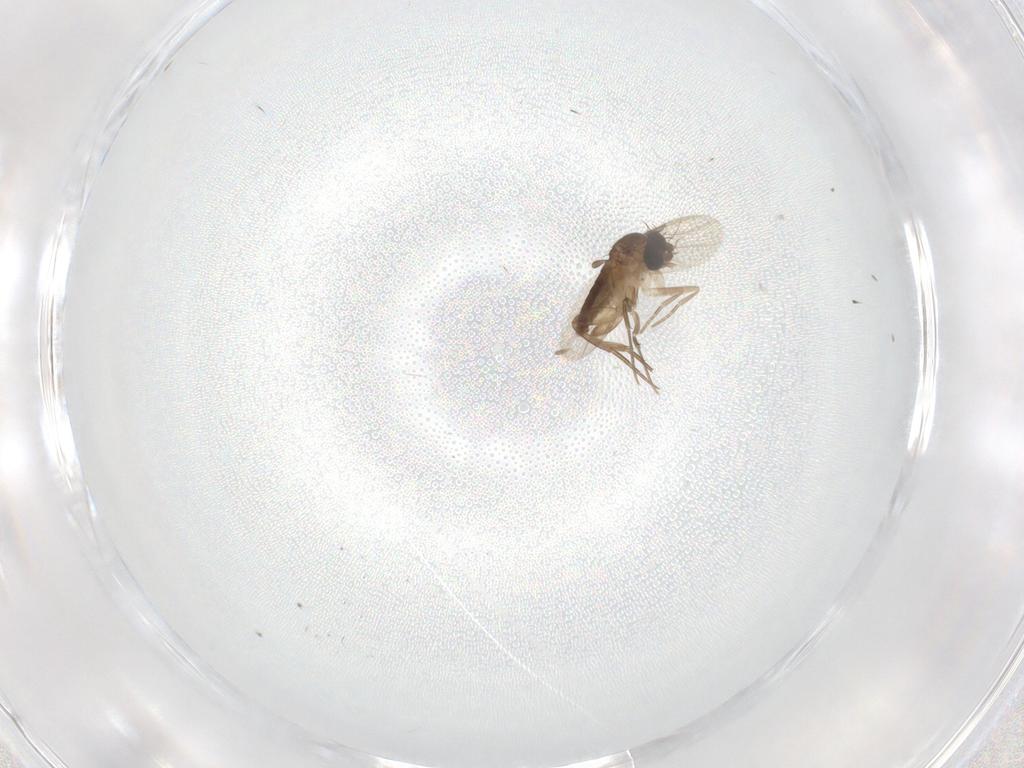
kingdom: Animalia
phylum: Arthropoda
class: Insecta
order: Diptera
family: Phoridae
